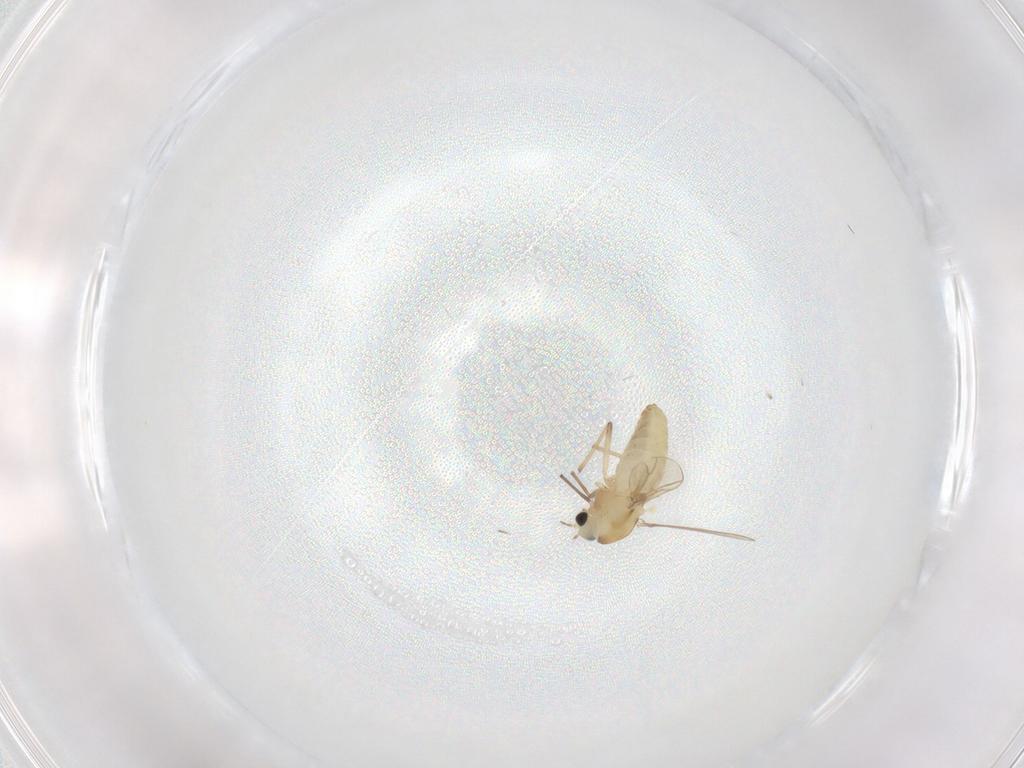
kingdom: Animalia
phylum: Arthropoda
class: Insecta
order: Diptera
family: Chironomidae
